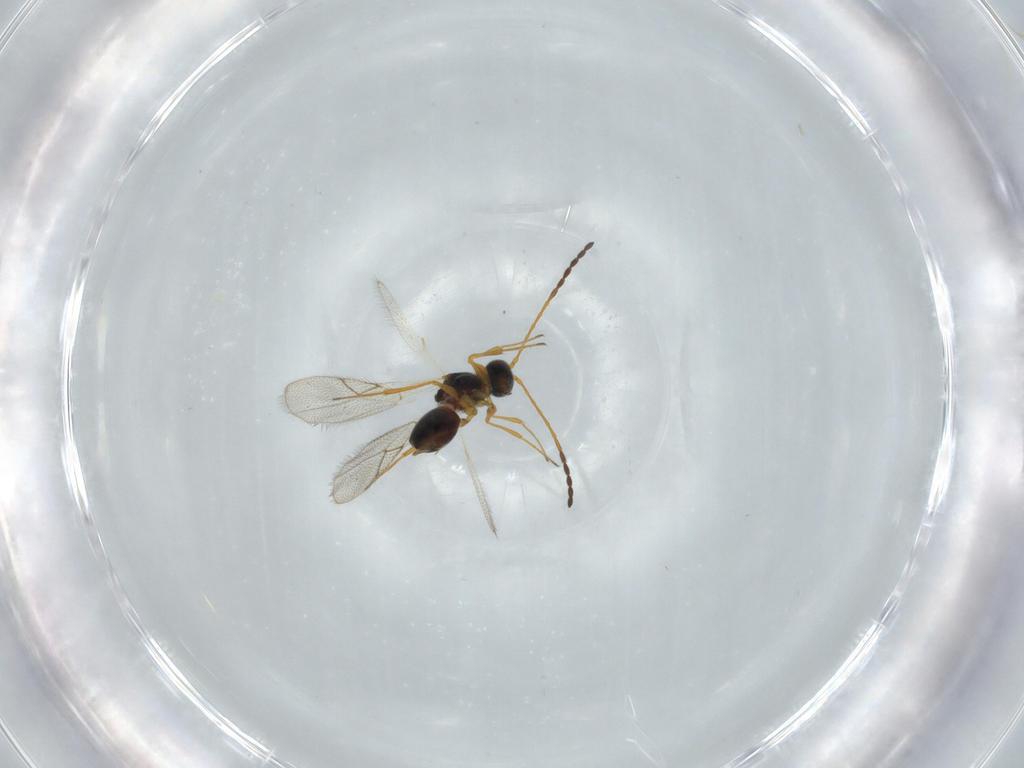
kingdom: Animalia
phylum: Arthropoda
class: Insecta
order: Hymenoptera
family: Figitidae
